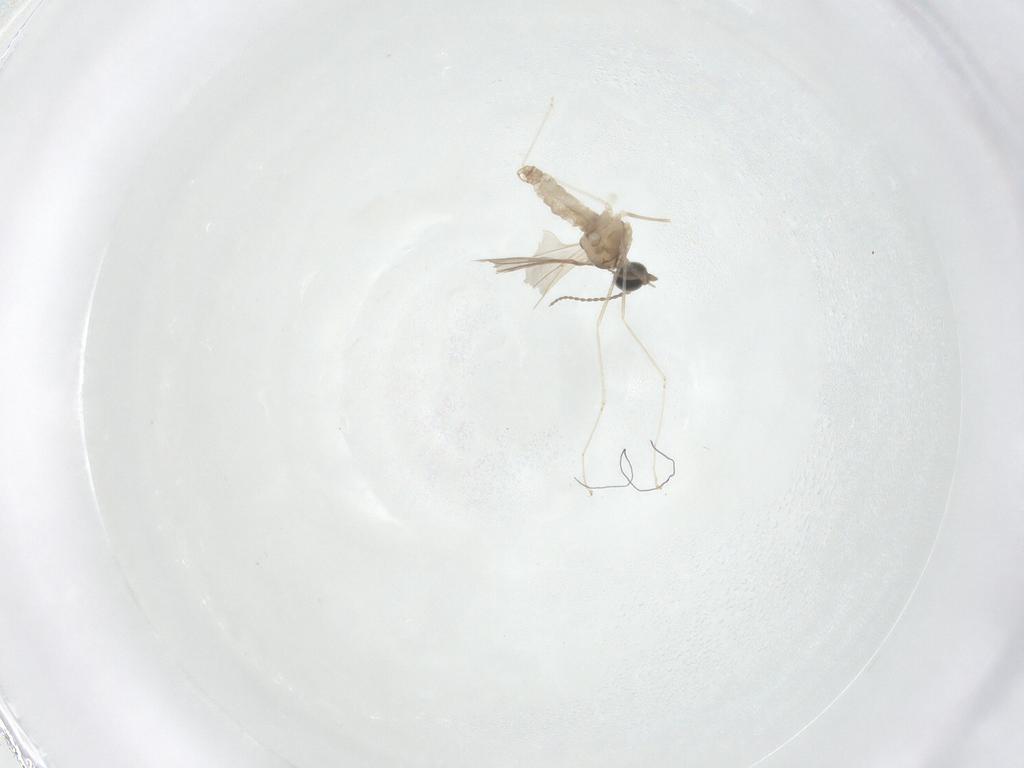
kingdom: Animalia
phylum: Arthropoda
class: Insecta
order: Diptera
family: Cecidomyiidae
